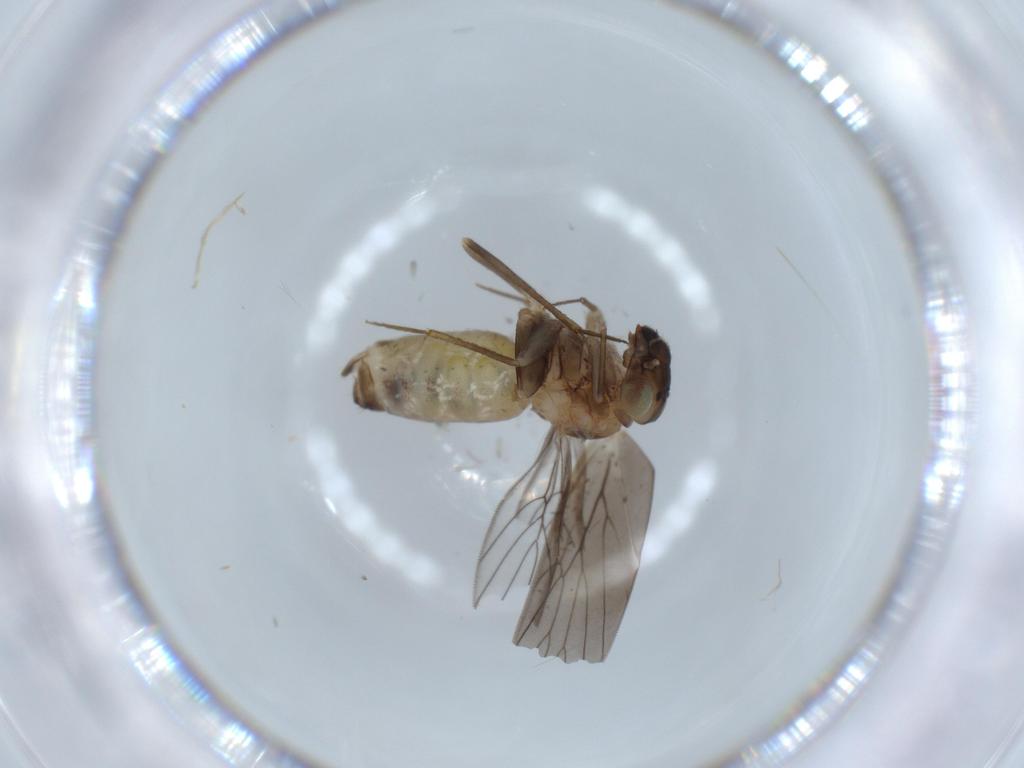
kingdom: Animalia
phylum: Arthropoda
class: Insecta
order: Psocodea
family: Lepidopsocidae
